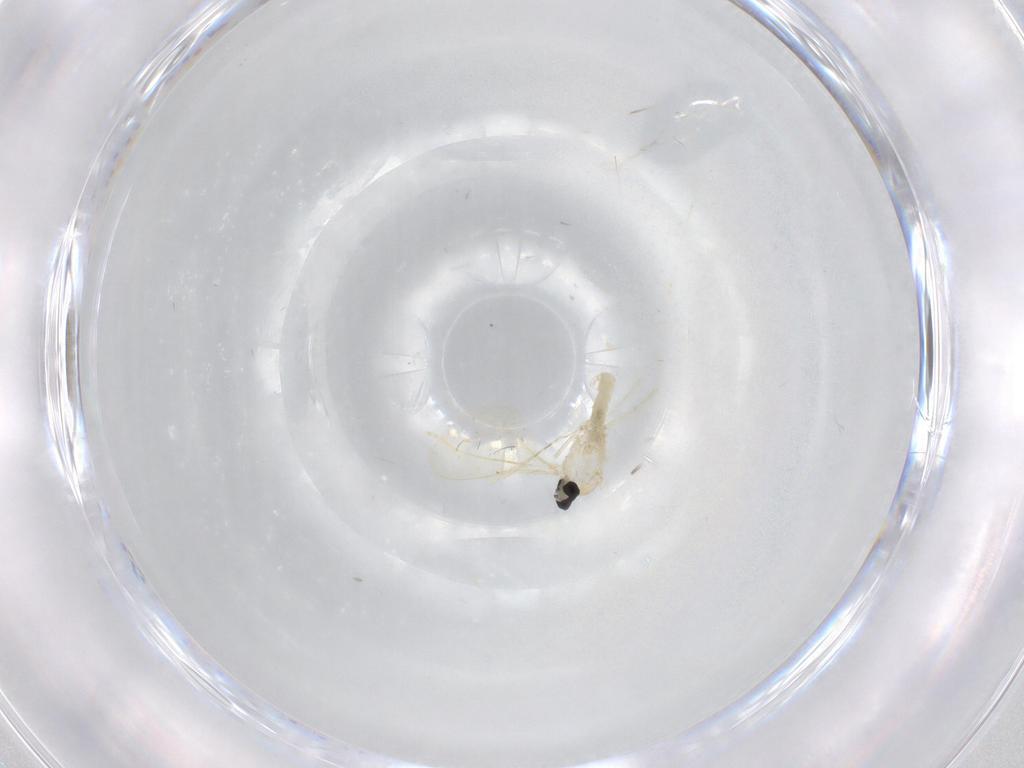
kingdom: Animalia
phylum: Arthropoda
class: Insecta
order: Diptera
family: Cecidomyiidae
